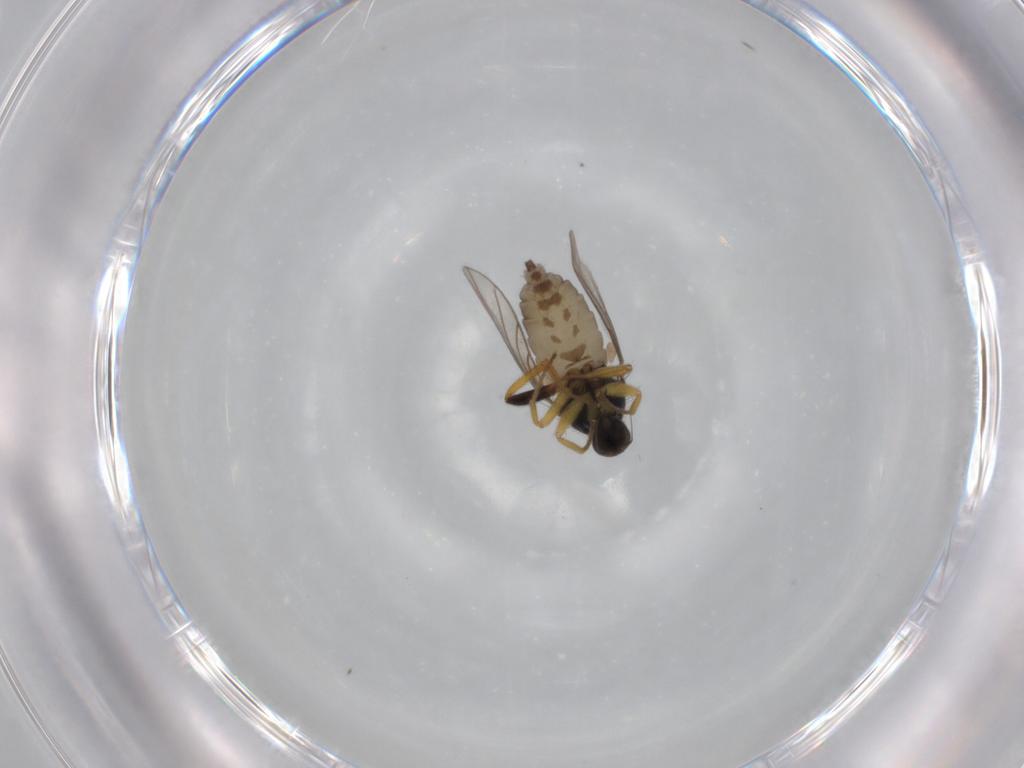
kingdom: Animalia
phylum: Arthropoda
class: Insecta
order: Diptera
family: Hybotidae
